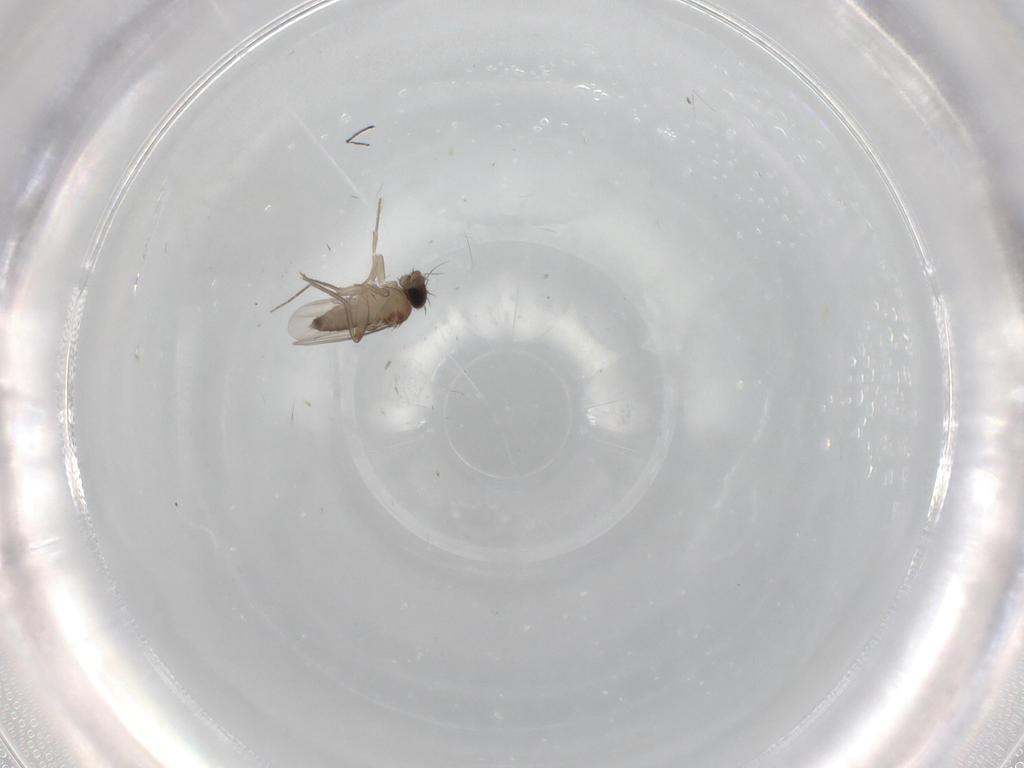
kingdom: Animalia
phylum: Arthropoda
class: Insecta
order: Diptera
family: Phoridae
